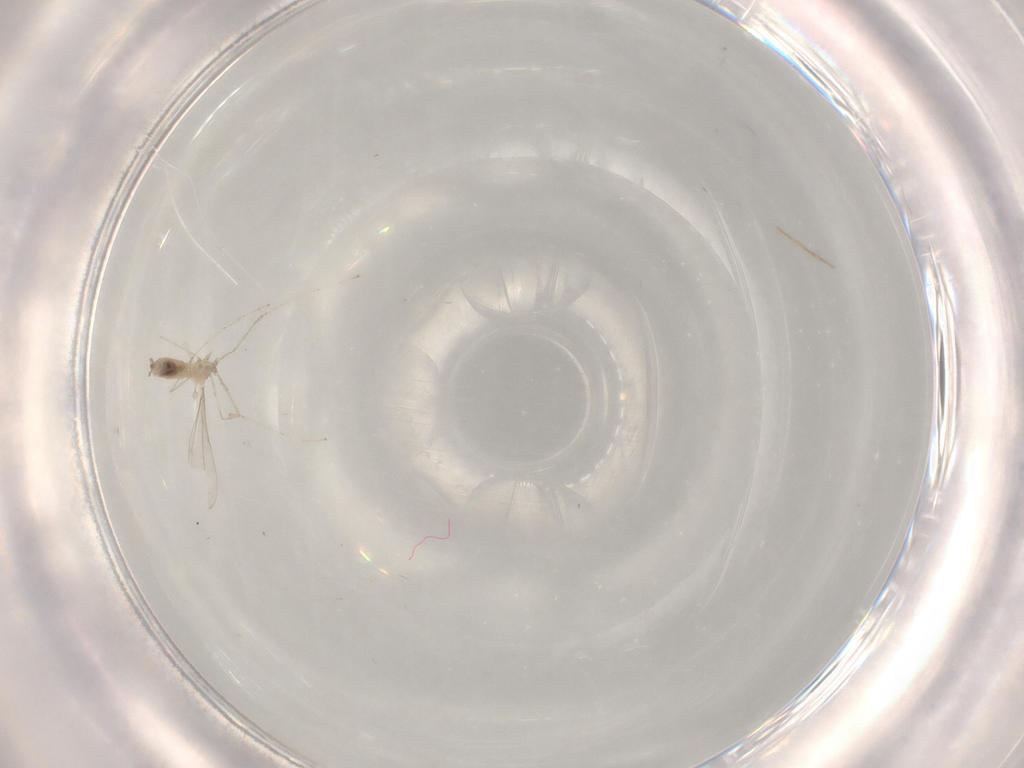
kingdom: Animalia
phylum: Arthropoda
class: Insecta
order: Diptera
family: Cecidomyiidae
